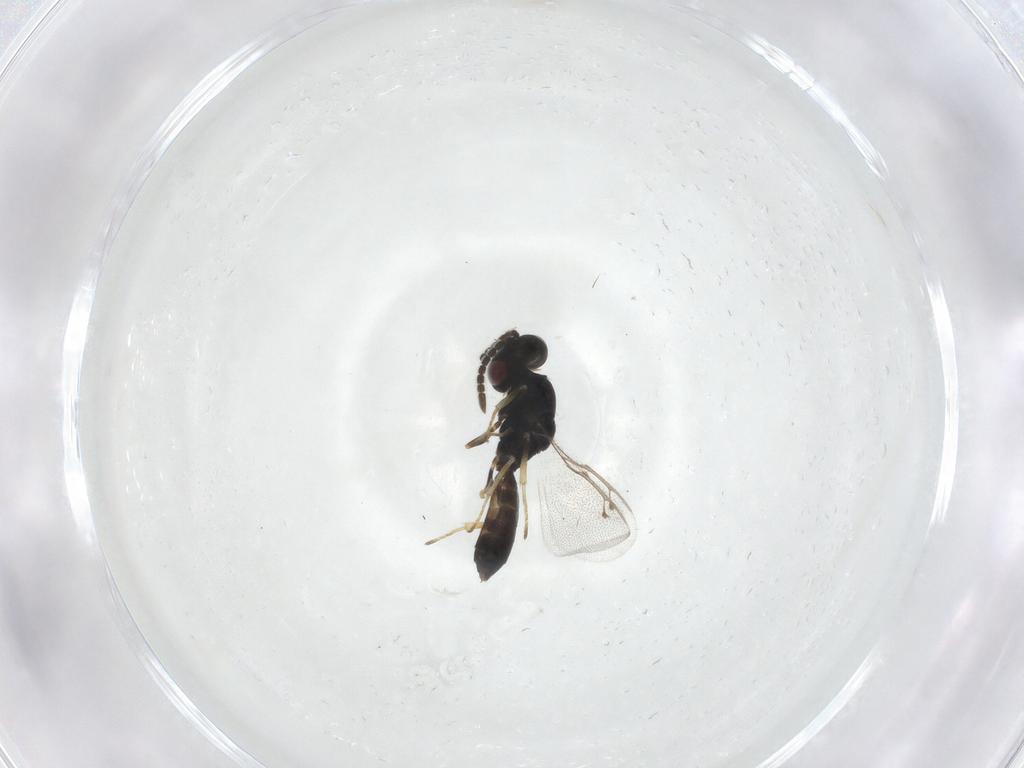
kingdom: Animalia
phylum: Arthropoda
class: Insecta
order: Hymenoptera
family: Pteromalidae
